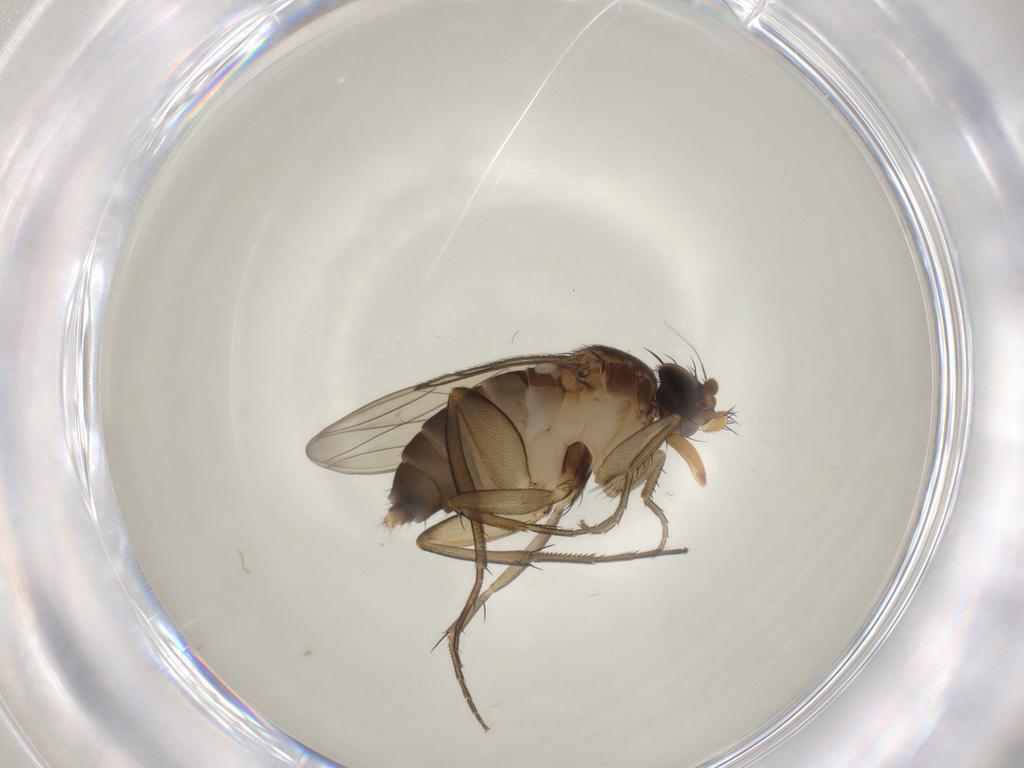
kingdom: Animalia
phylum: Arthropoda
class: Insecta
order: Diptera
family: Phoridae
